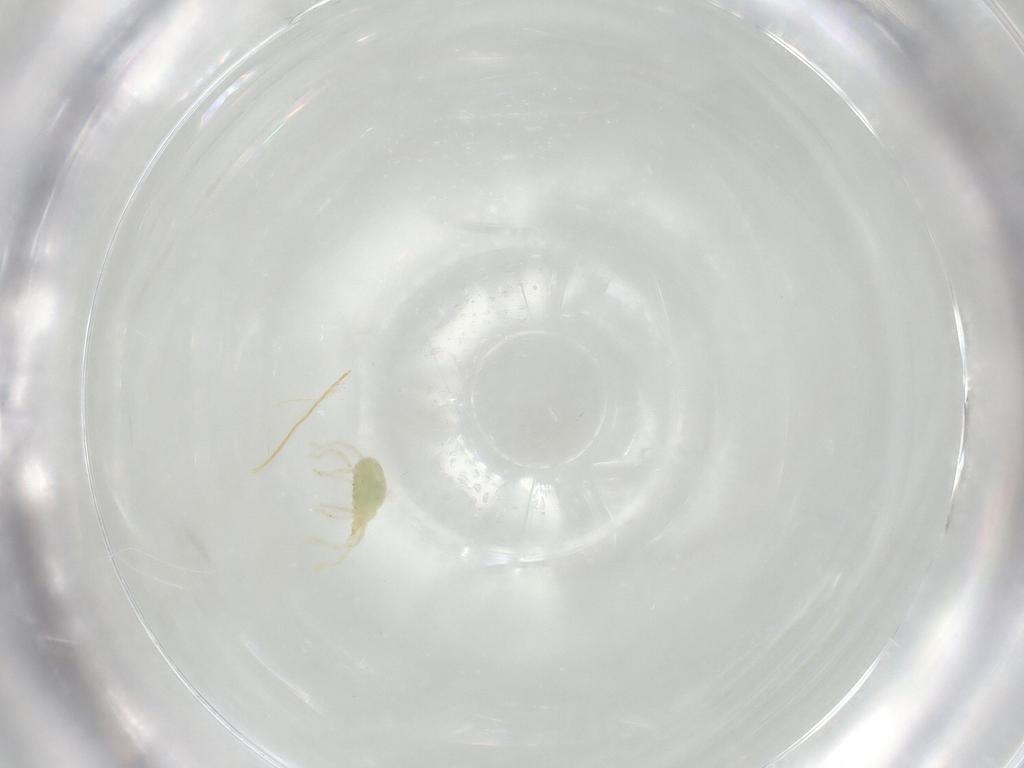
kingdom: Animalia
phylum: Arthropoda
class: Arachnida
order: Trombidiformes
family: Erythraeidae
